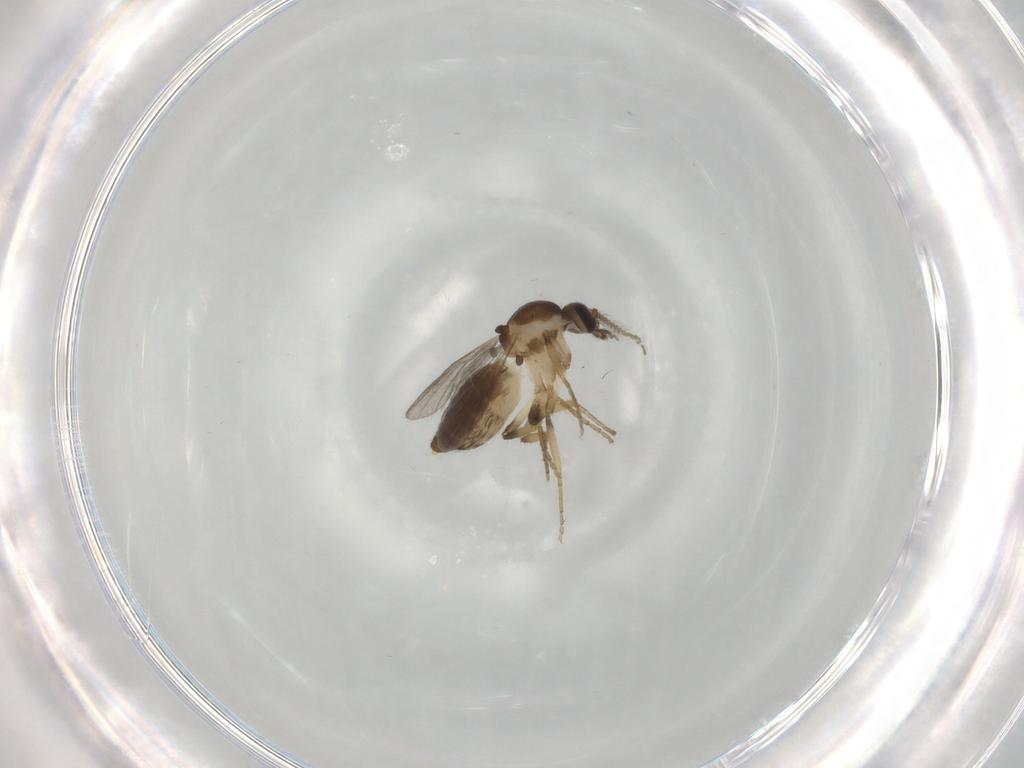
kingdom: Animalia
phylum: Arthropoda
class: Insecta
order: Diptera
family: Ceratopogonidae
